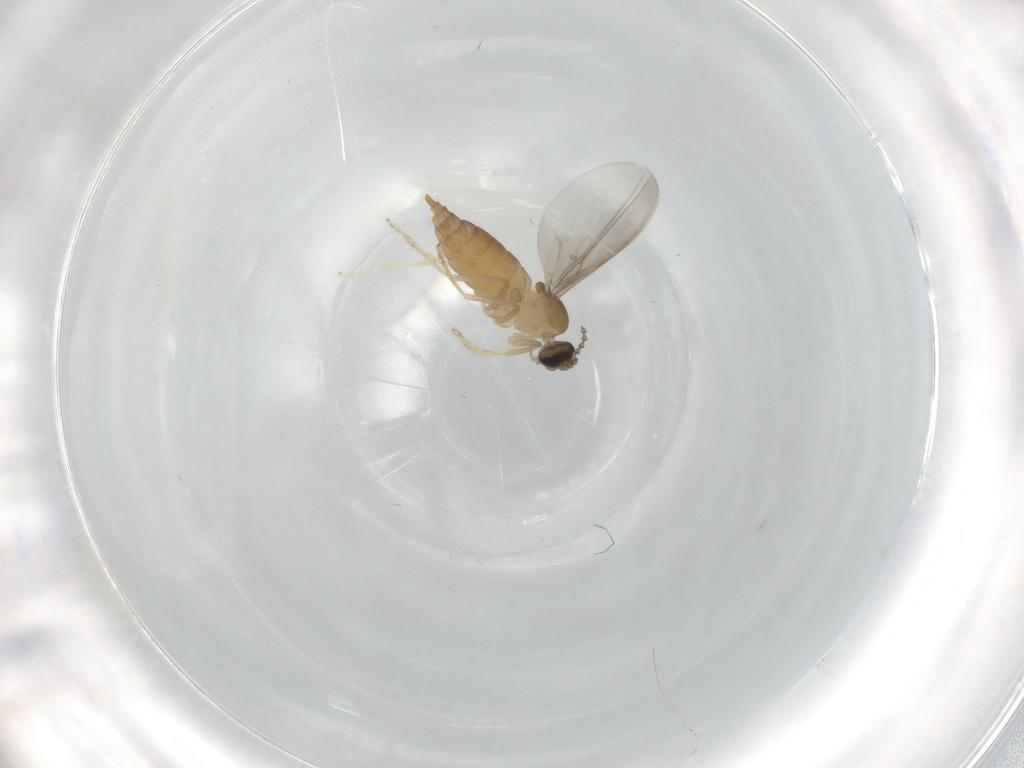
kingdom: Animalia
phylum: Arthropoda
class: Insecta
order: Diptera
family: Cecidomyiidae
